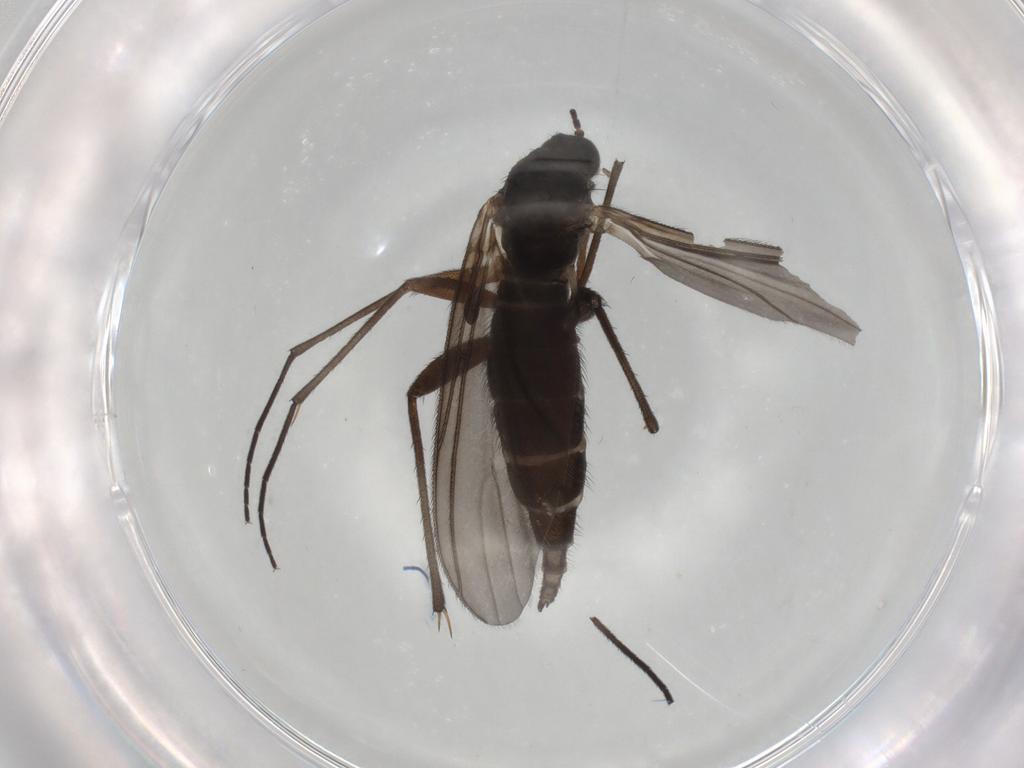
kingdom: Animalia
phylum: Arthropoda
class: Insecta
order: Diptera
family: Sciaridae
